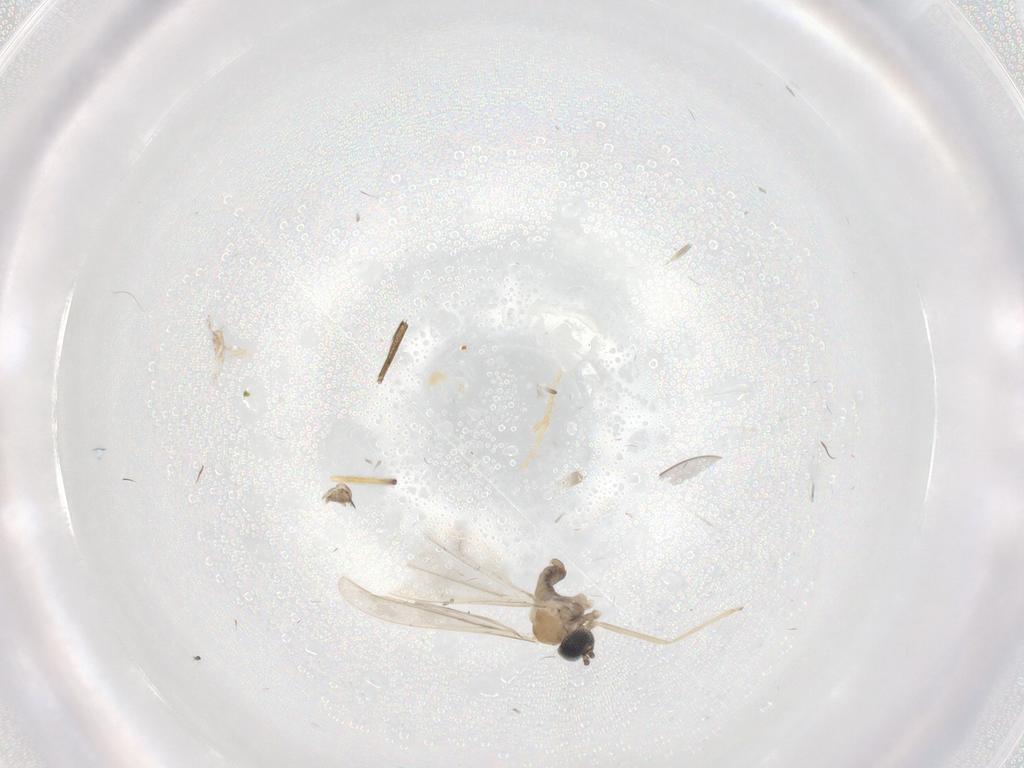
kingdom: Animalia
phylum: Arthropoda
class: Insecta
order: Diptera
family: Sciaridae
